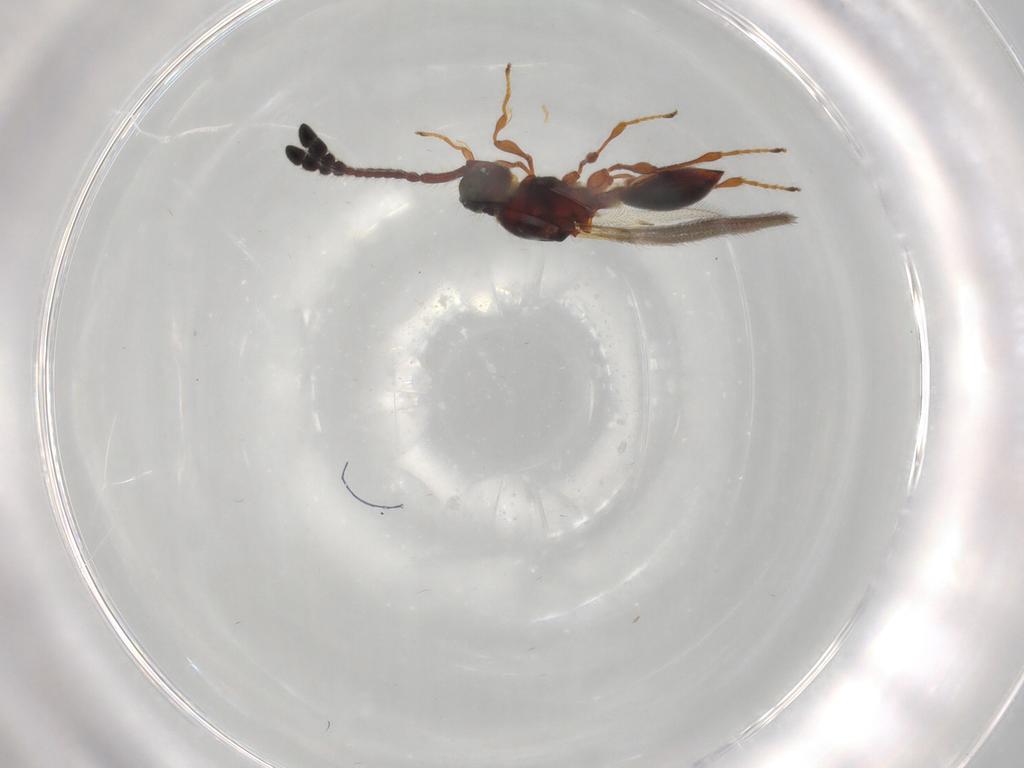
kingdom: Animalia
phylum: Arthropoda
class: Insecta
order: Hymenoptera
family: Diapriidae
